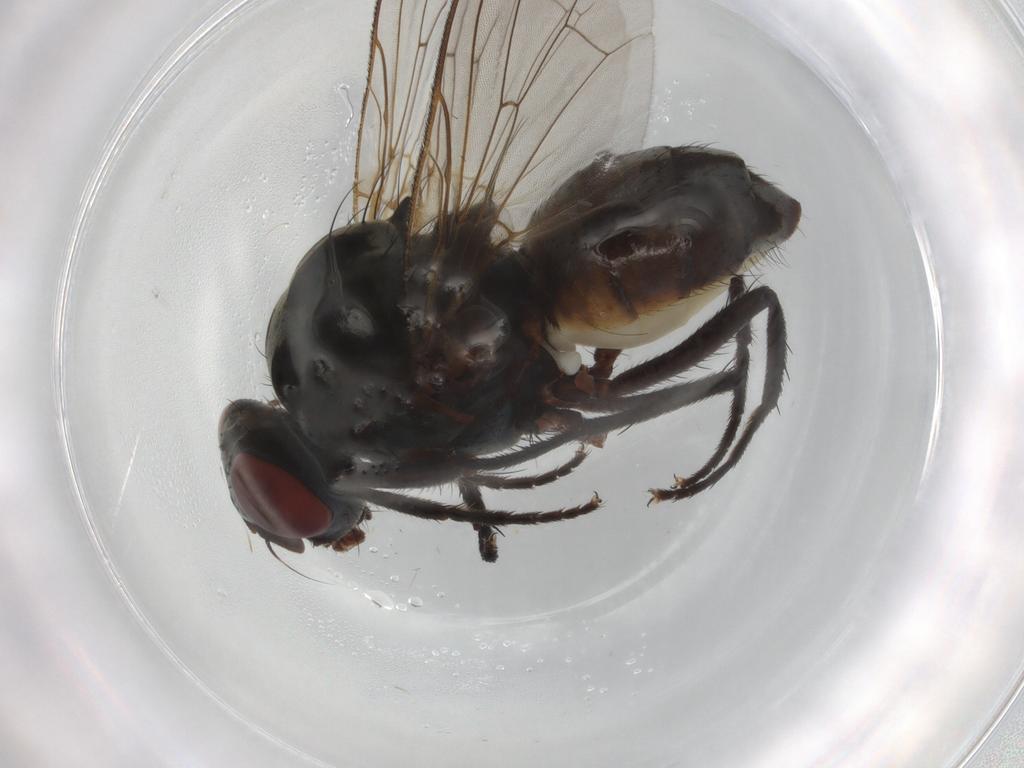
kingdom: Animalia
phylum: Arthropoda
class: Insecta
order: Diptera
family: Anthomyiidae
